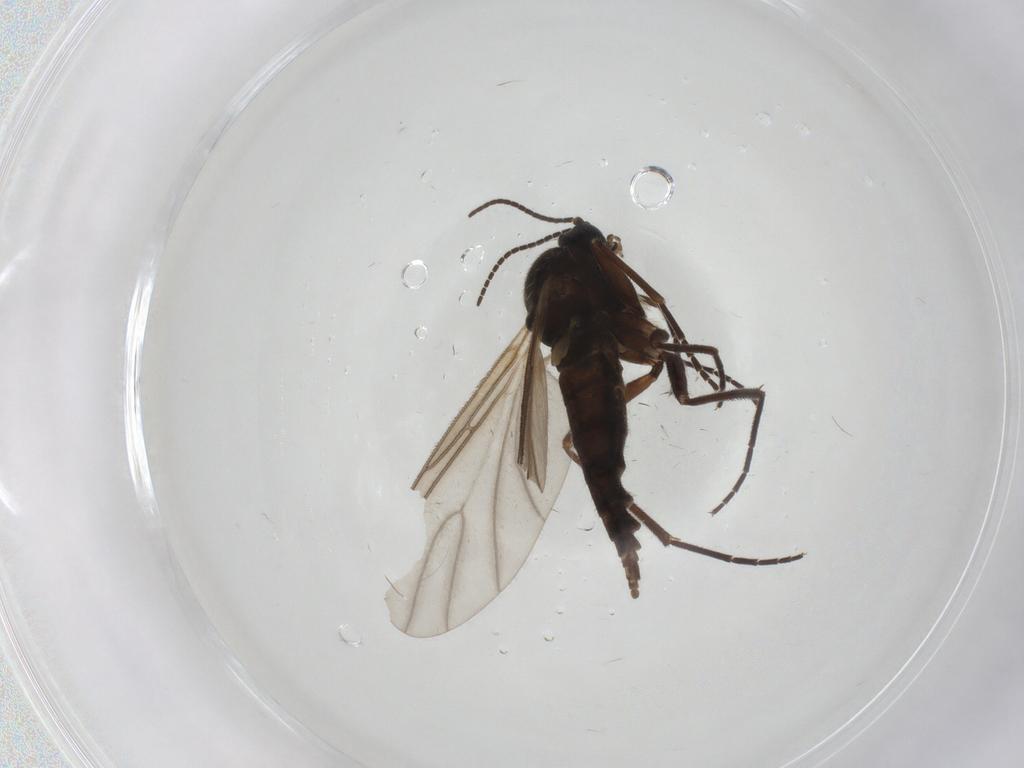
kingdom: Animalia
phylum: Arthropoda
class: Insecta
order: Diptera
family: Sciaridae
